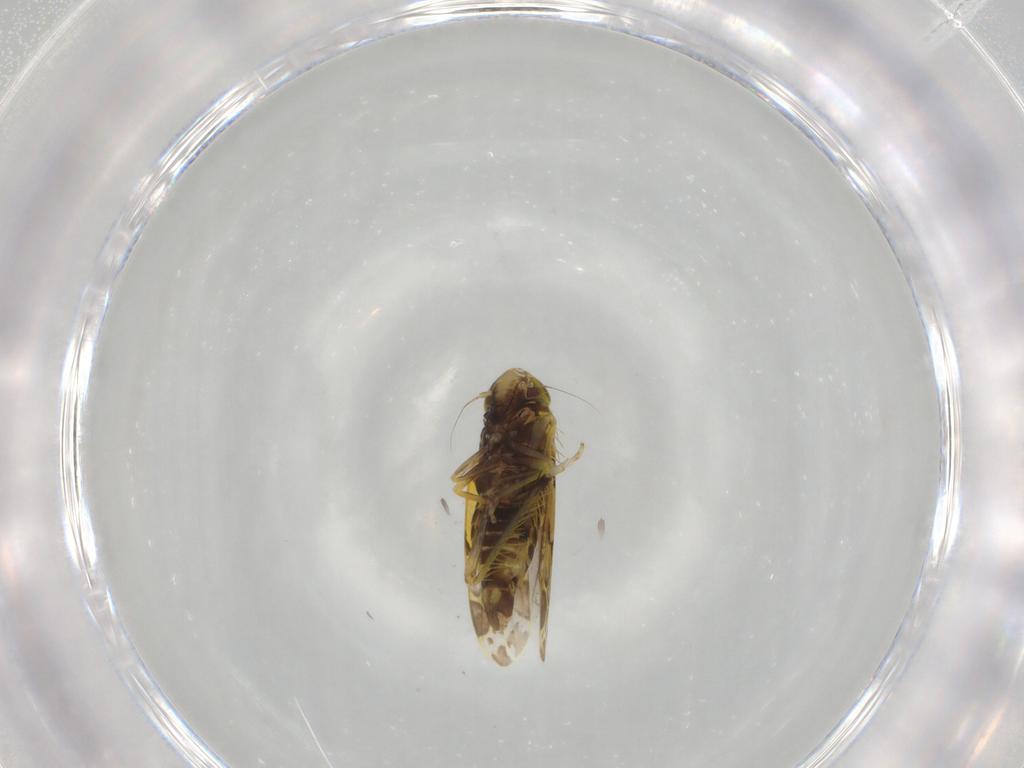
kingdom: Animalia
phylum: Arthropoda
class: Insecta
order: Hemiptera
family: Cicadellidae
